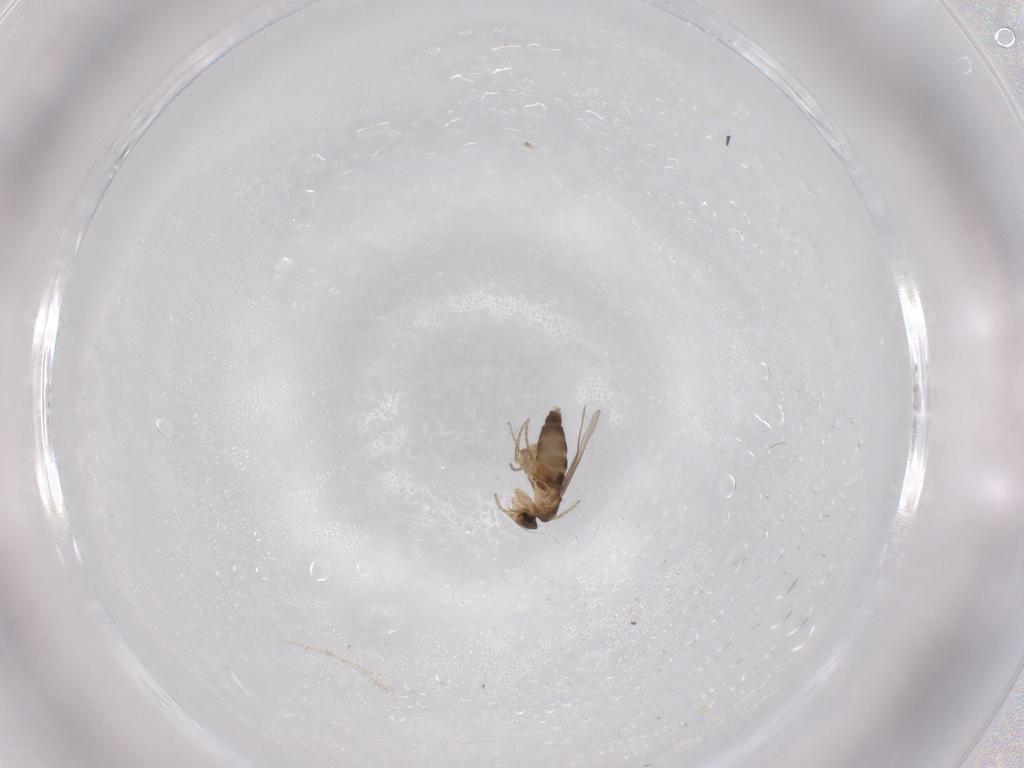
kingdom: Animalia
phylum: Arthropoda
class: Insecta
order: Diptera
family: Phoridae
